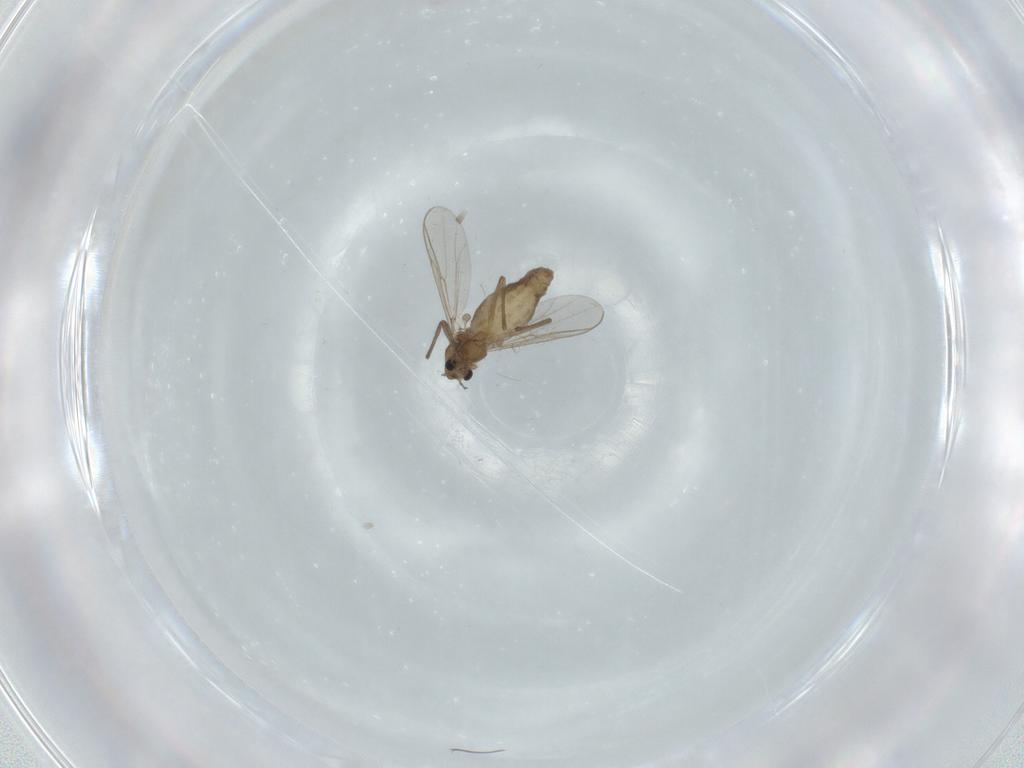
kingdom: Animalia
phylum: Arthropoda
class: Insecta
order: Diptera
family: Chironomidae
